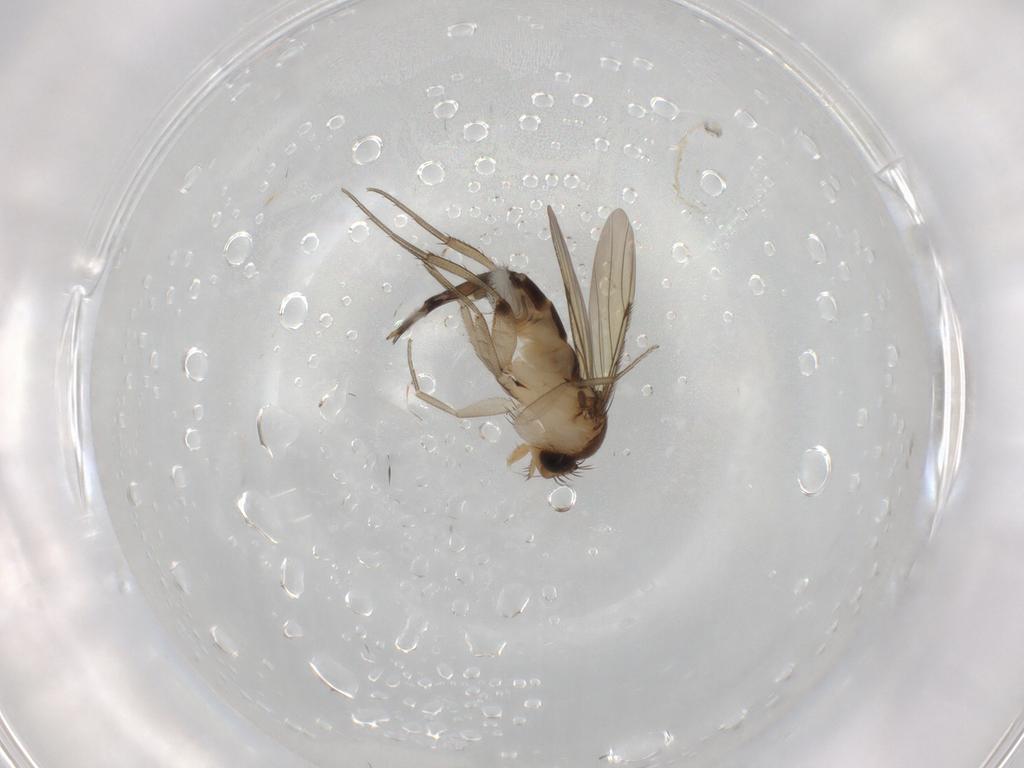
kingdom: Animalia
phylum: Arthropoda
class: Insecta
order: Diptera
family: Phoridae
